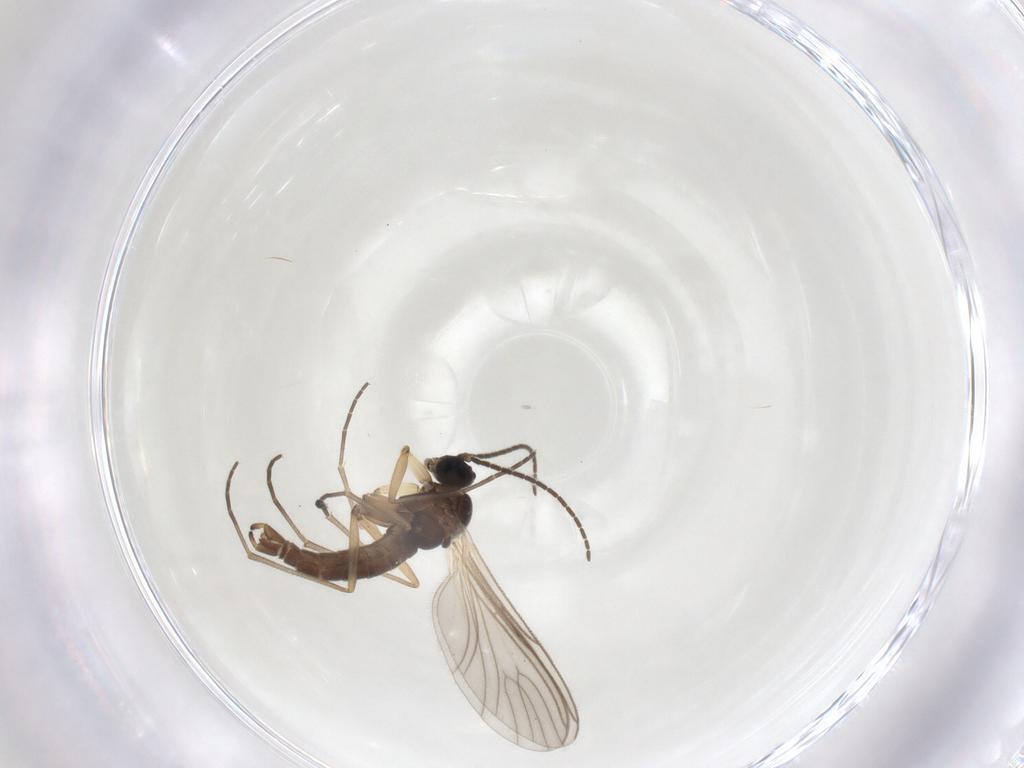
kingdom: Animalia
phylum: Arthropoda
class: Insecta
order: Diptera
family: Sciaridae
